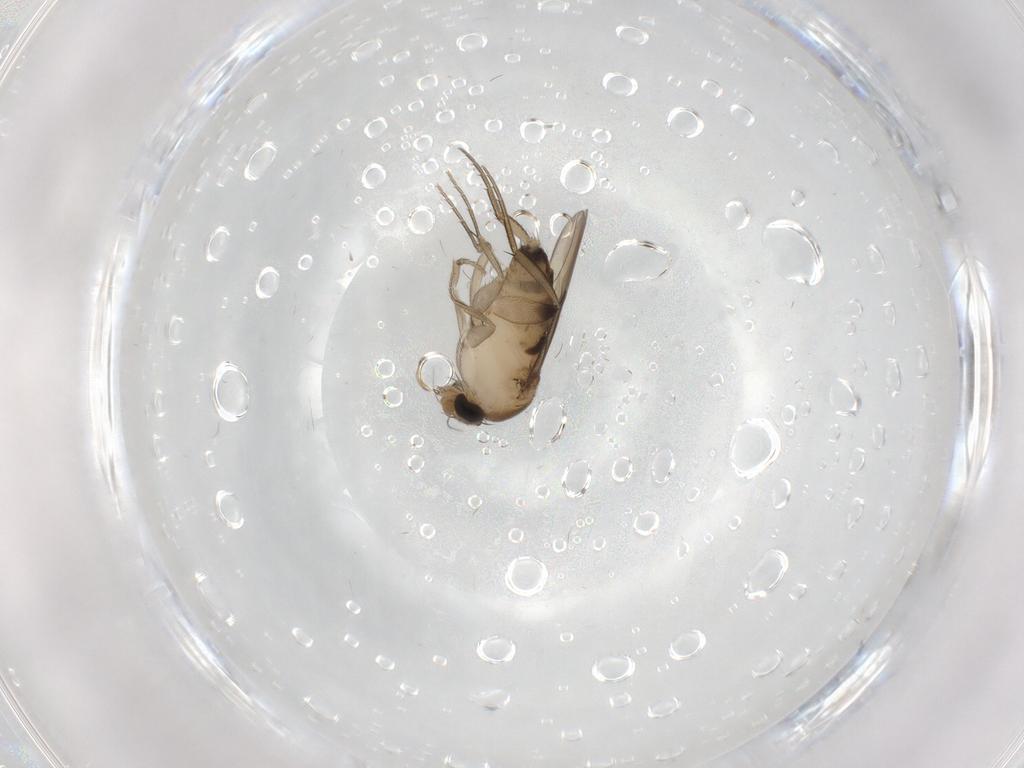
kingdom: Animalia
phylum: Arthropoda
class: Insecta
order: Diptera
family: Phoridae
